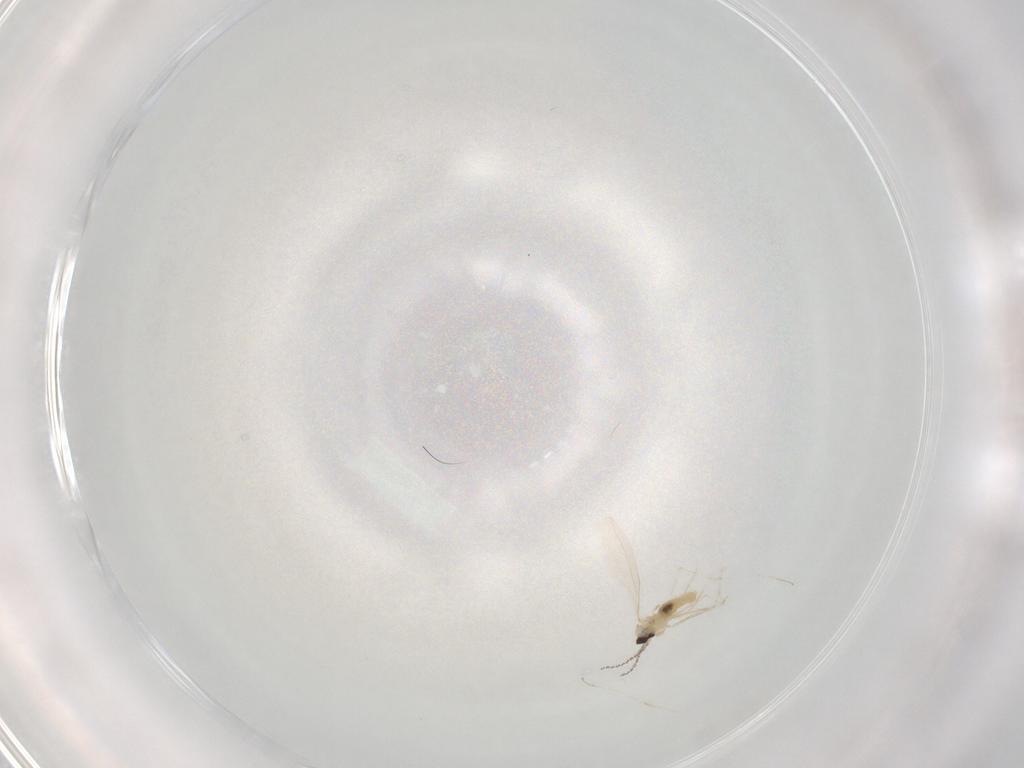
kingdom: Animalia
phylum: Arthropoda
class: Insecta
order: Diptera
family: Cecidomyiidae
